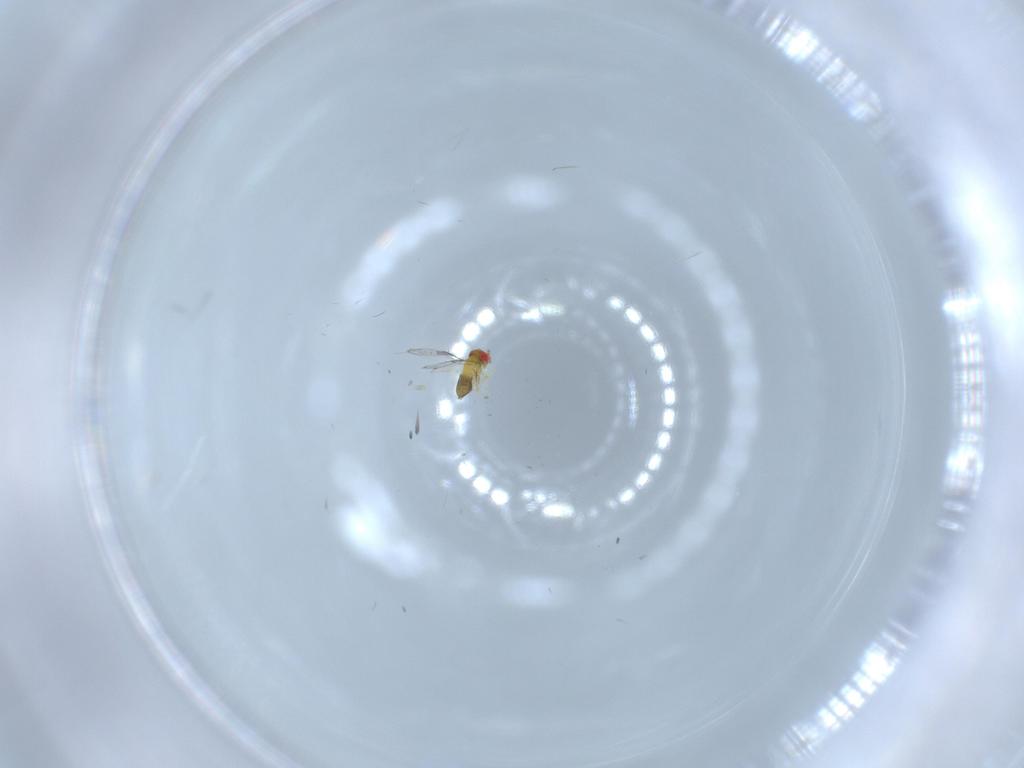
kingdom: Animalia
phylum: Arthropoda
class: Insecta
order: Hymenoptera
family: Trichogrammatidae
